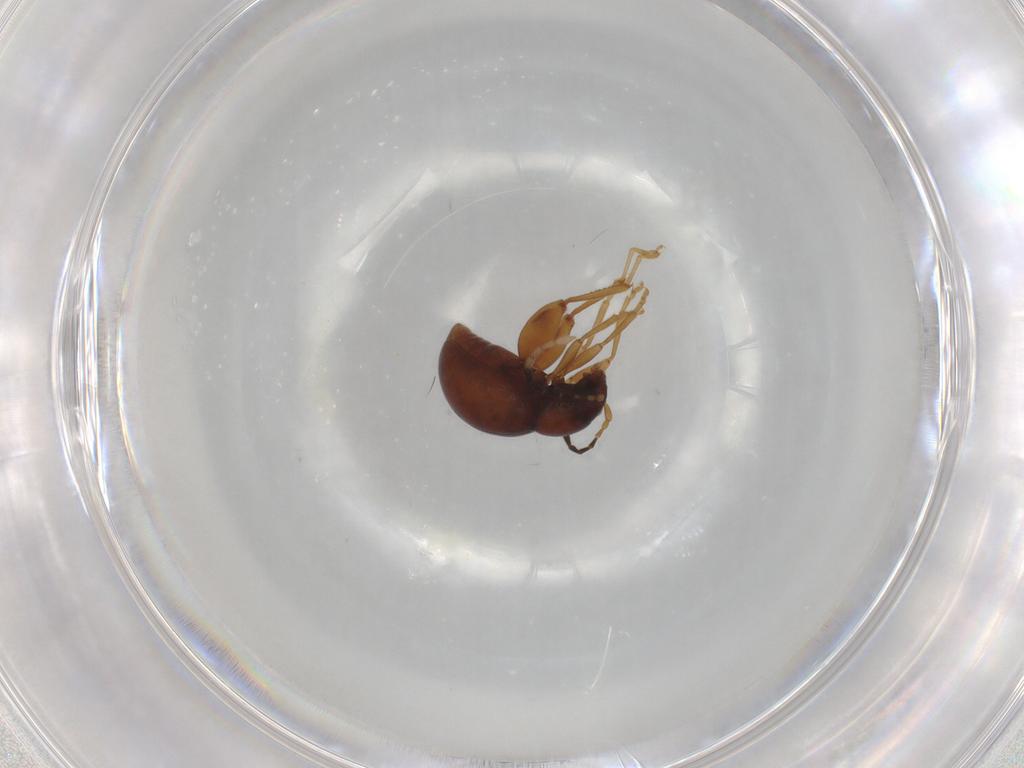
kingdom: Animalia
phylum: Arthropoda
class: Insecta
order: Coleoptera
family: Chrysomelidae
